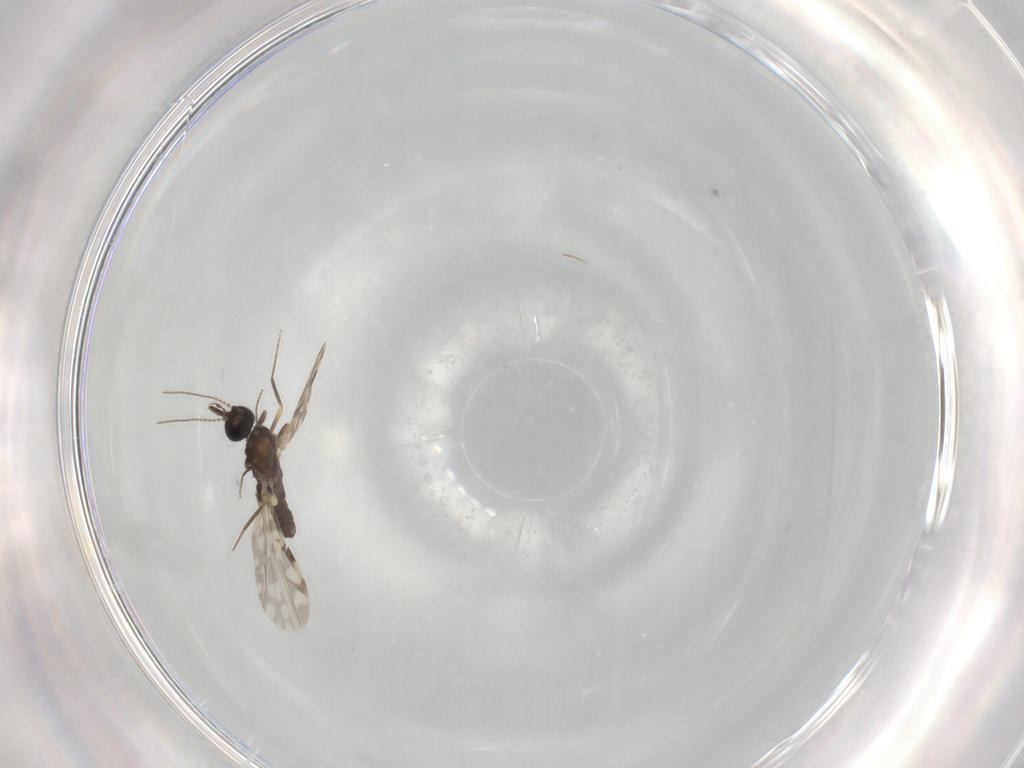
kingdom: Animalia
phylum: Arthropoda
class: Insecta
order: Diptera
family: Ceratopogonidae
